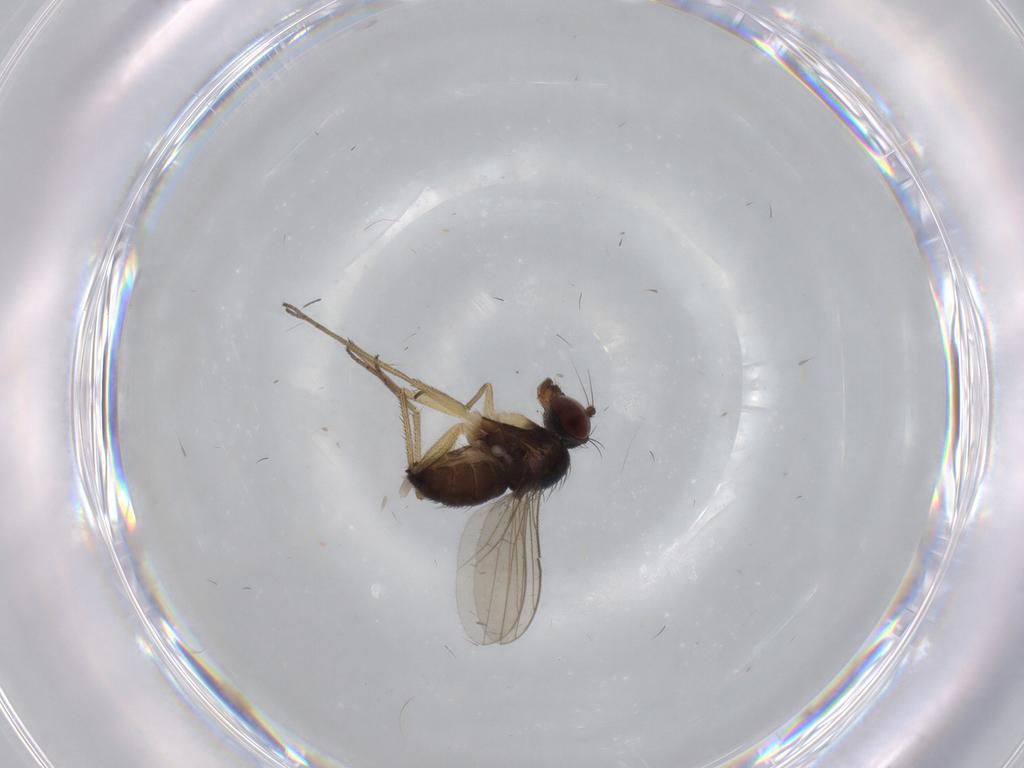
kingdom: Animalia
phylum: Arthropoda
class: Insecta
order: Diptera
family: Dolichopodidae
